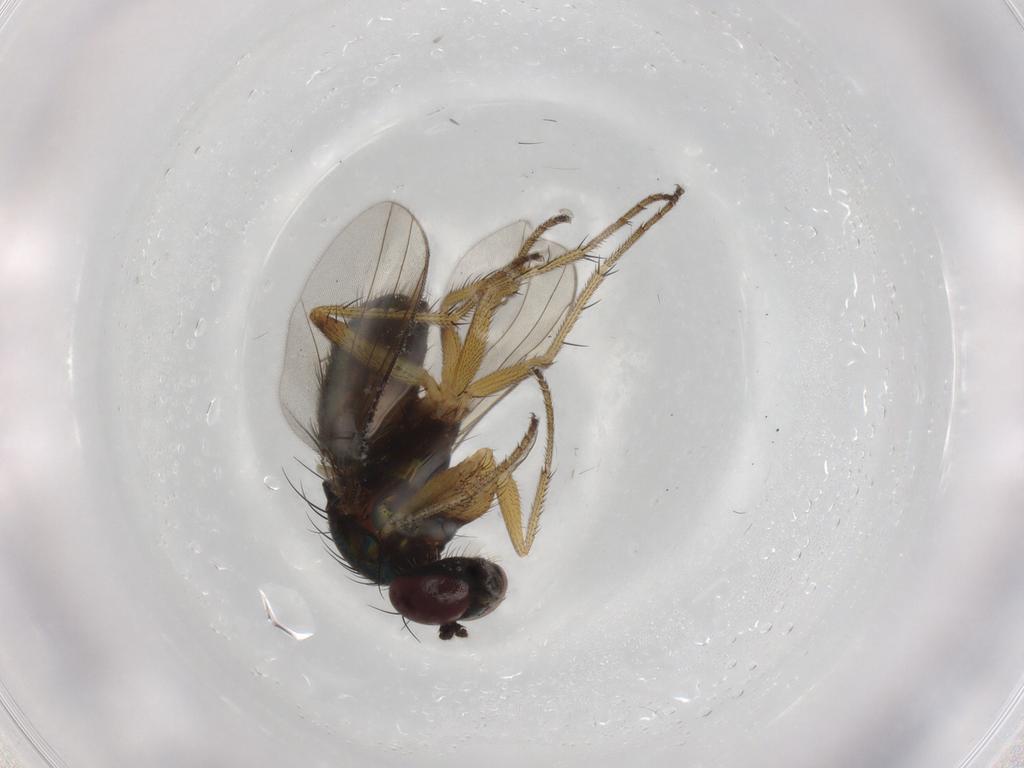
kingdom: Animalia
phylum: Arthropoda
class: Insecta
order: Diptera
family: Dolichopodidae
